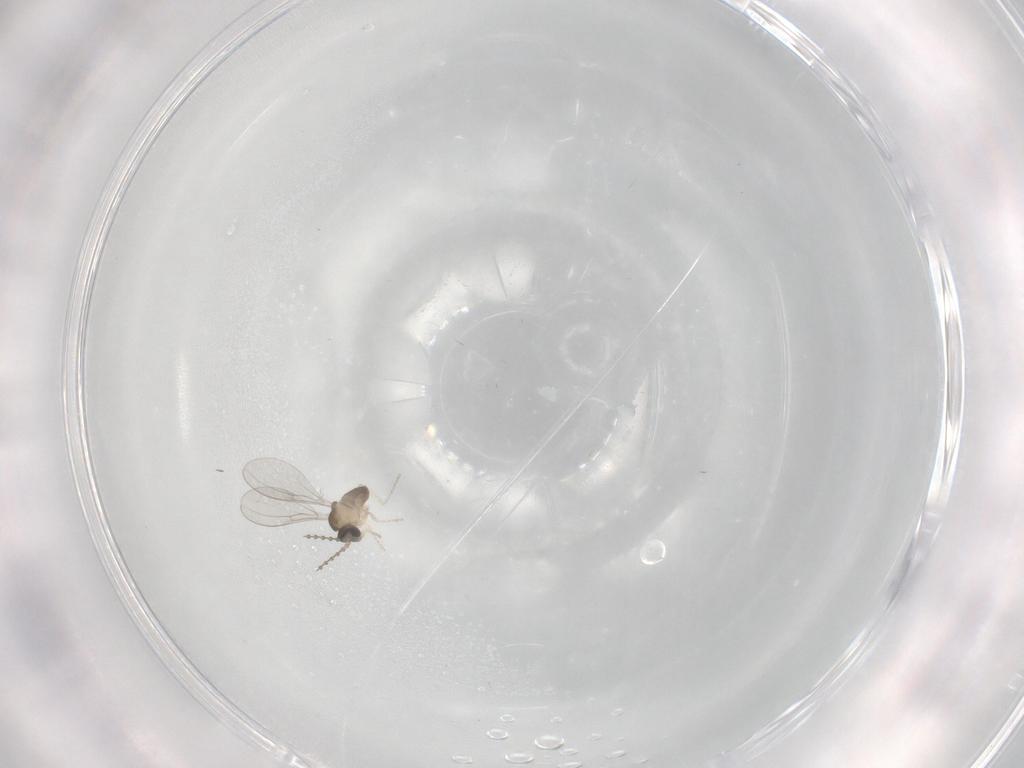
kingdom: Animalia
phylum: Arthropoda
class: Insecta
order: Diptera
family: Cecidomyiidae
